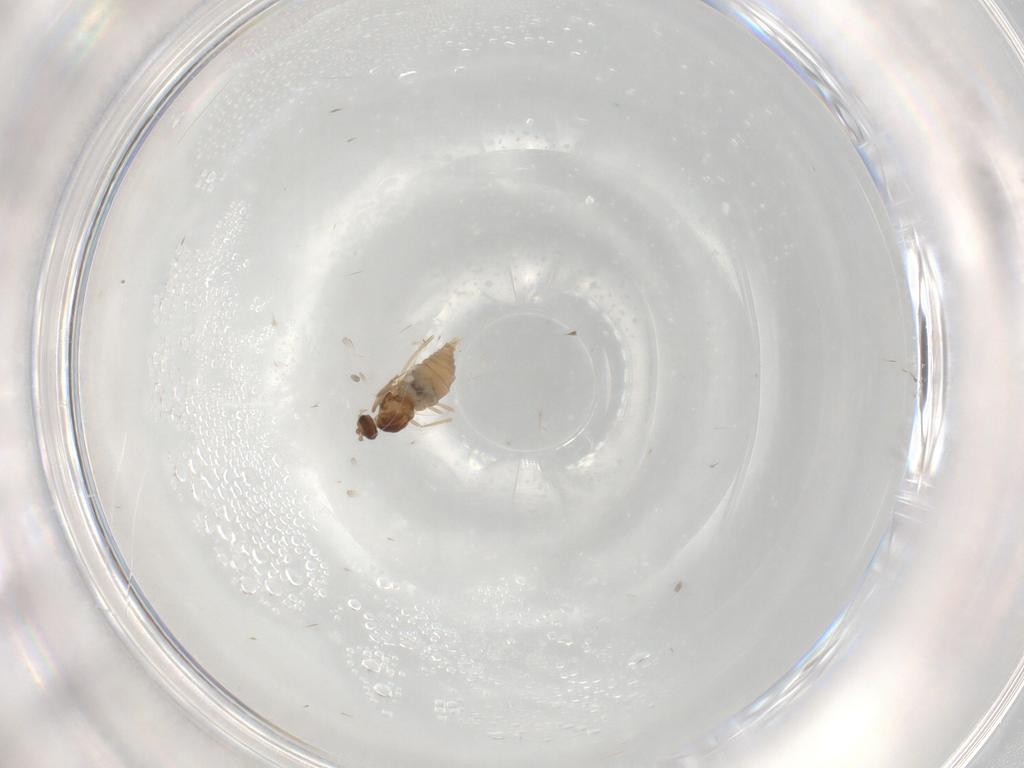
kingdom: Animalia
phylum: Arthropoda
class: Insecta
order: Diptera
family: Cecidomyiidae
